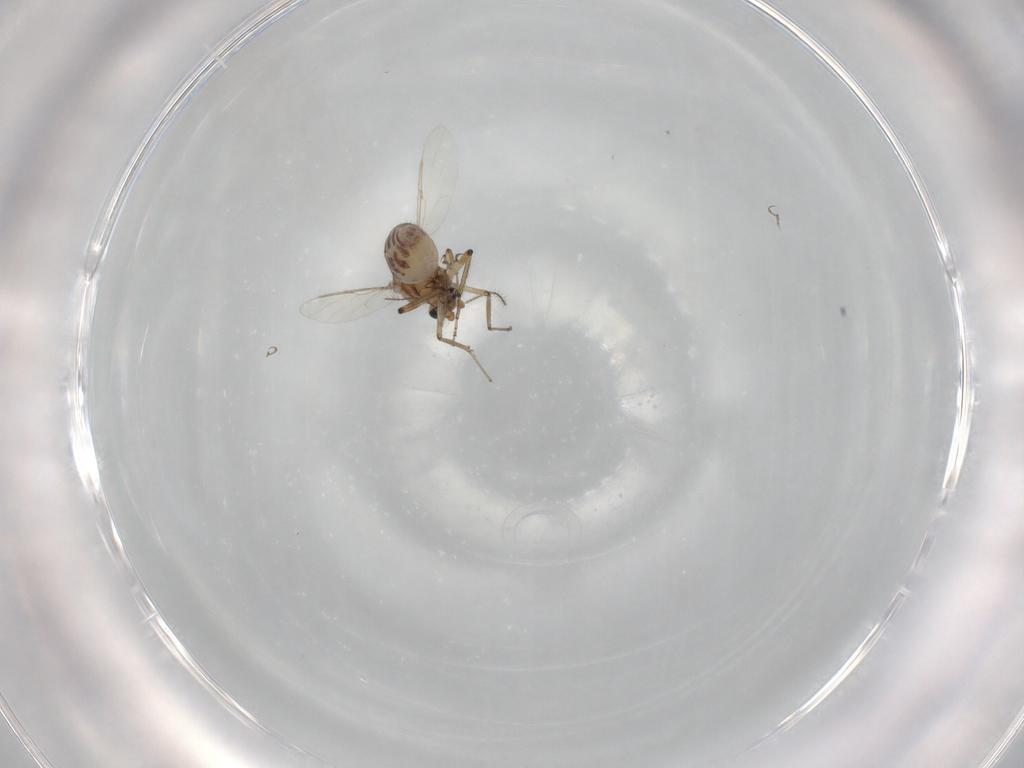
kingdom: Animalia
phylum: Arthropoda
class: Insecta
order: Diptera
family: Ceratopogonidae
